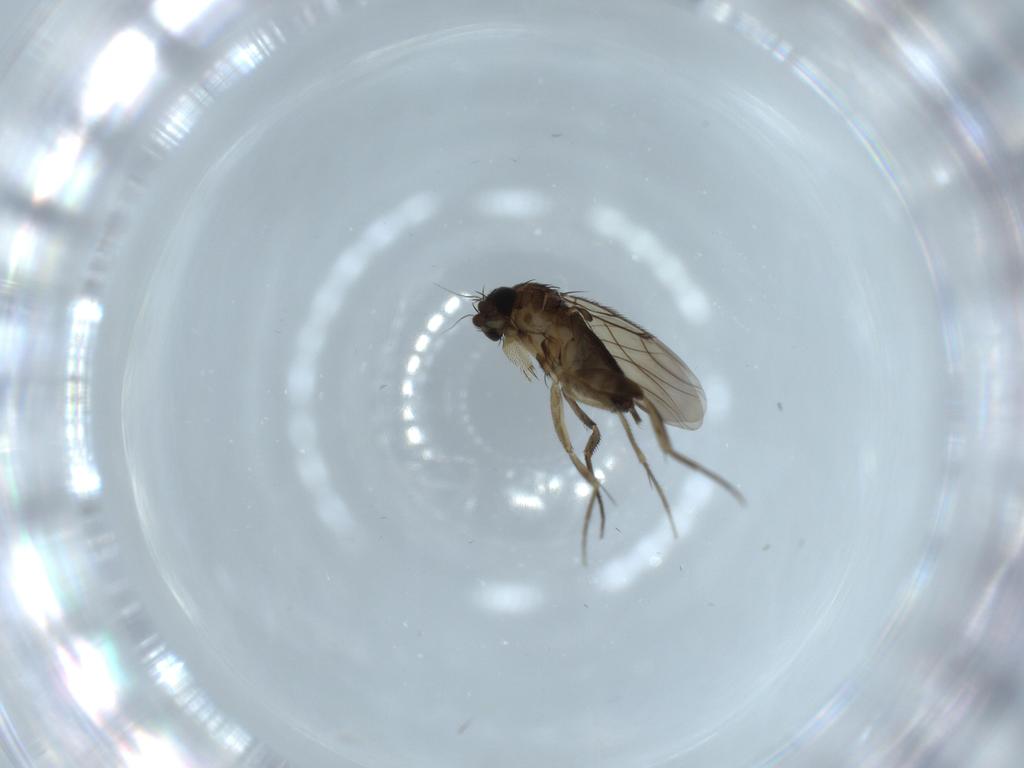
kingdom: Animalia
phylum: Arthropoda
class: Insecta
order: Diptera
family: Phoridae
